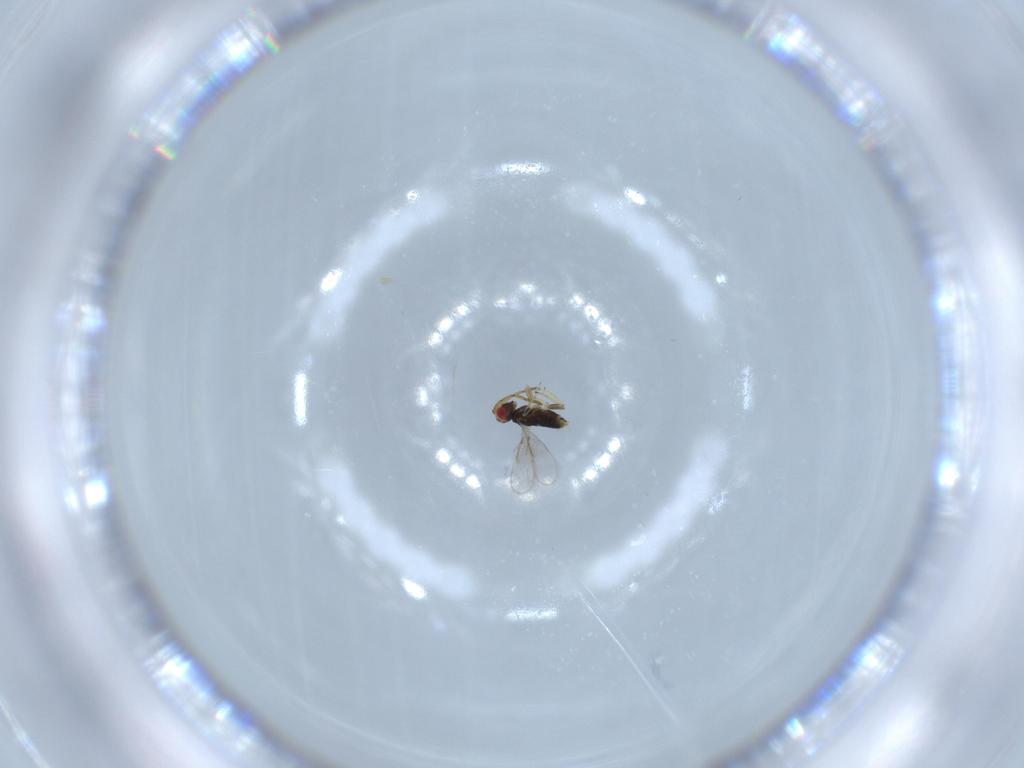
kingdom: Animalia
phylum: Arthropoda
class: Insecta
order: Hymenoptera
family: Azotidae
